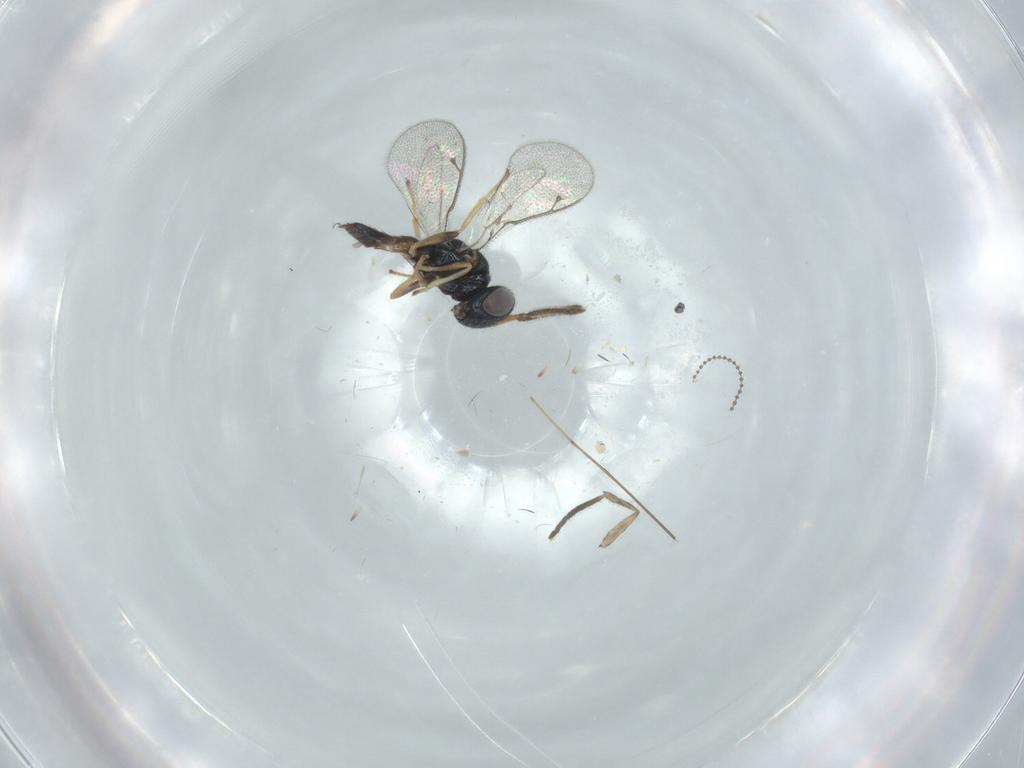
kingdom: Animalia
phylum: Arthropoda
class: Insecta
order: Hymenoptera
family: Bethylidae
